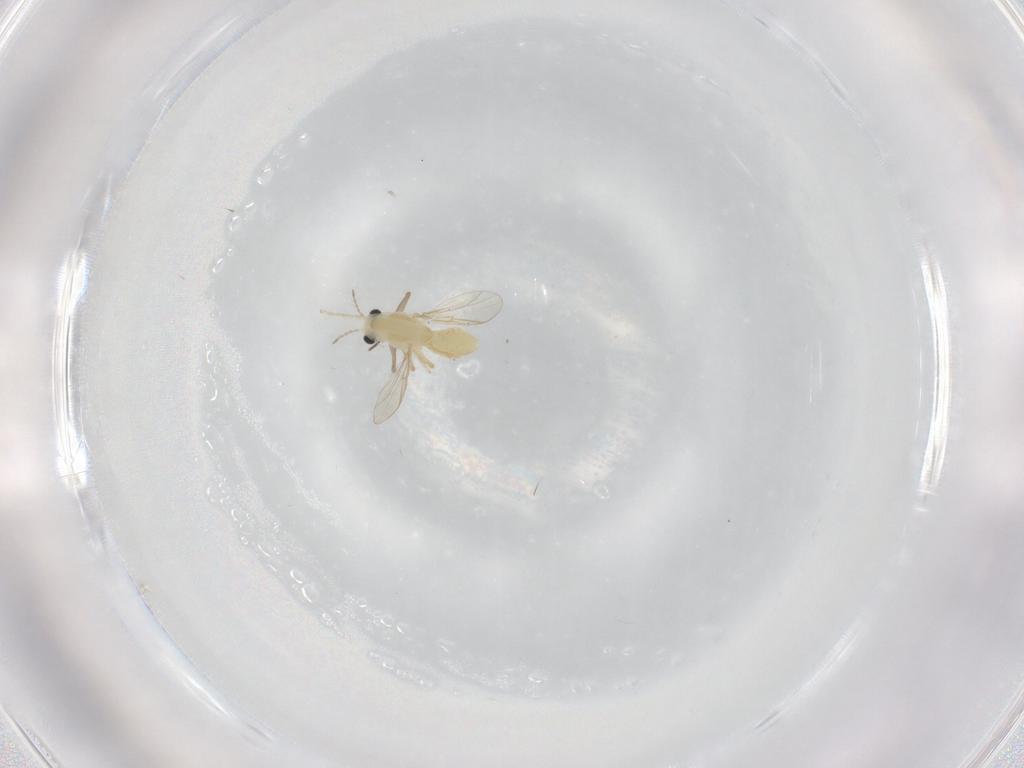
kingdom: Animalia
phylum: Arthropoda
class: Insecta
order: Diptera
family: Chironomidae
